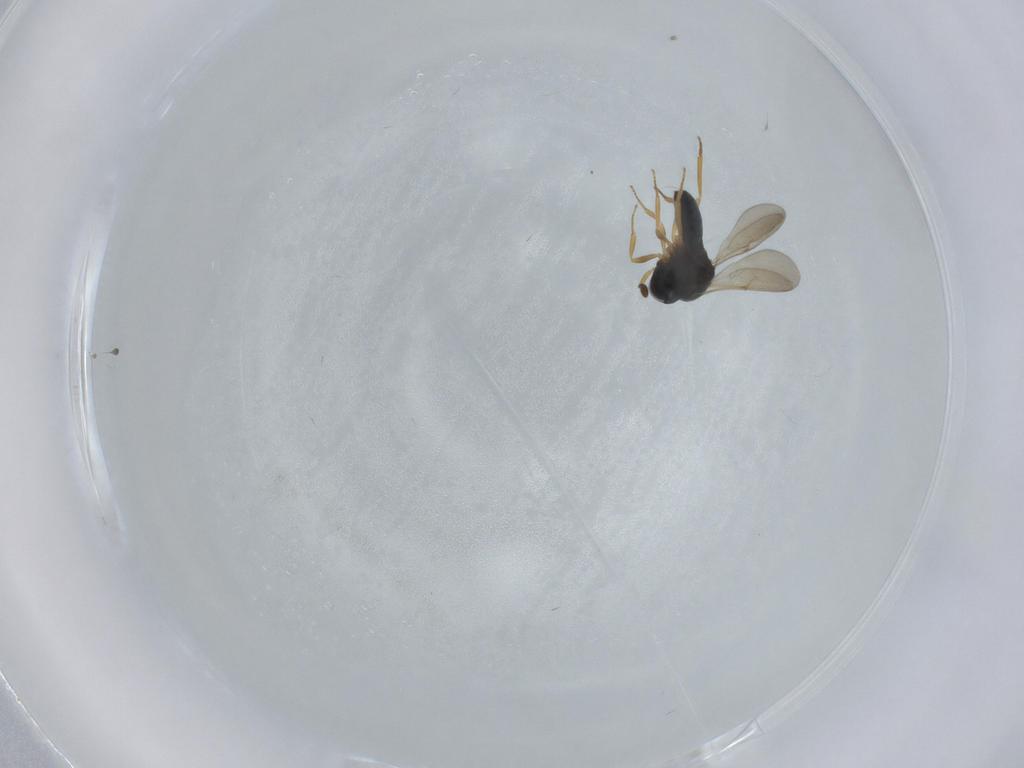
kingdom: Animalia
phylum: Arthropoda
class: Insecta
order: Hymenoptera
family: Scelionidae
